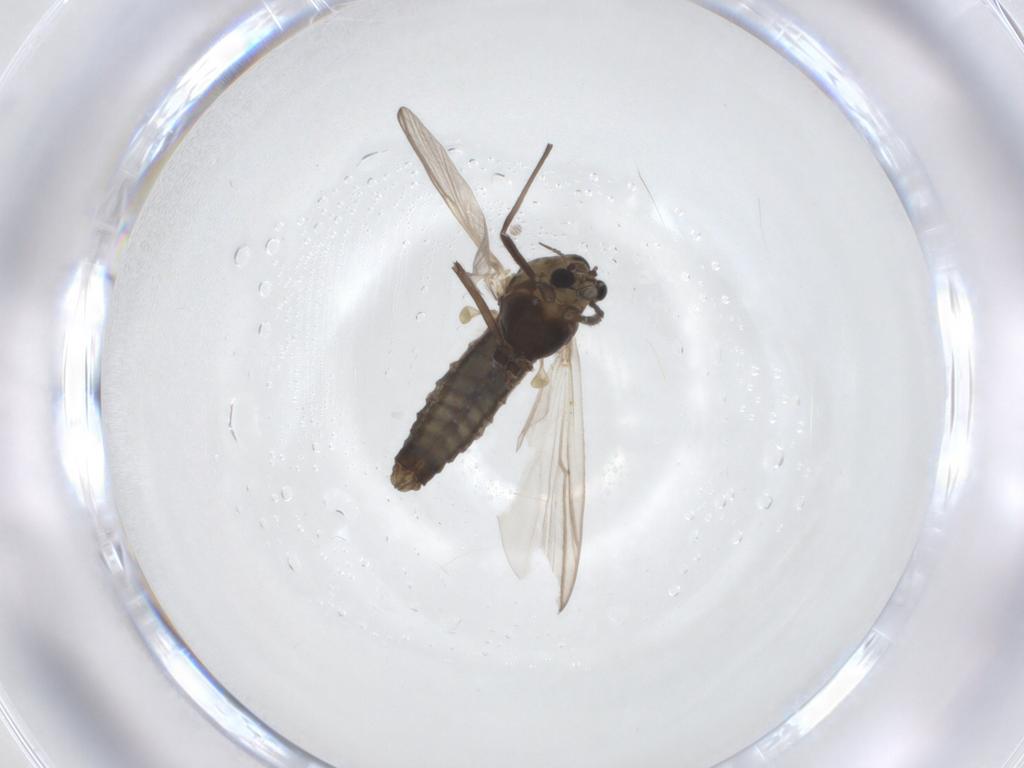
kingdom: Animalia
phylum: Arthropoda
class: Insecta
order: Diptera
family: Chironomidae
